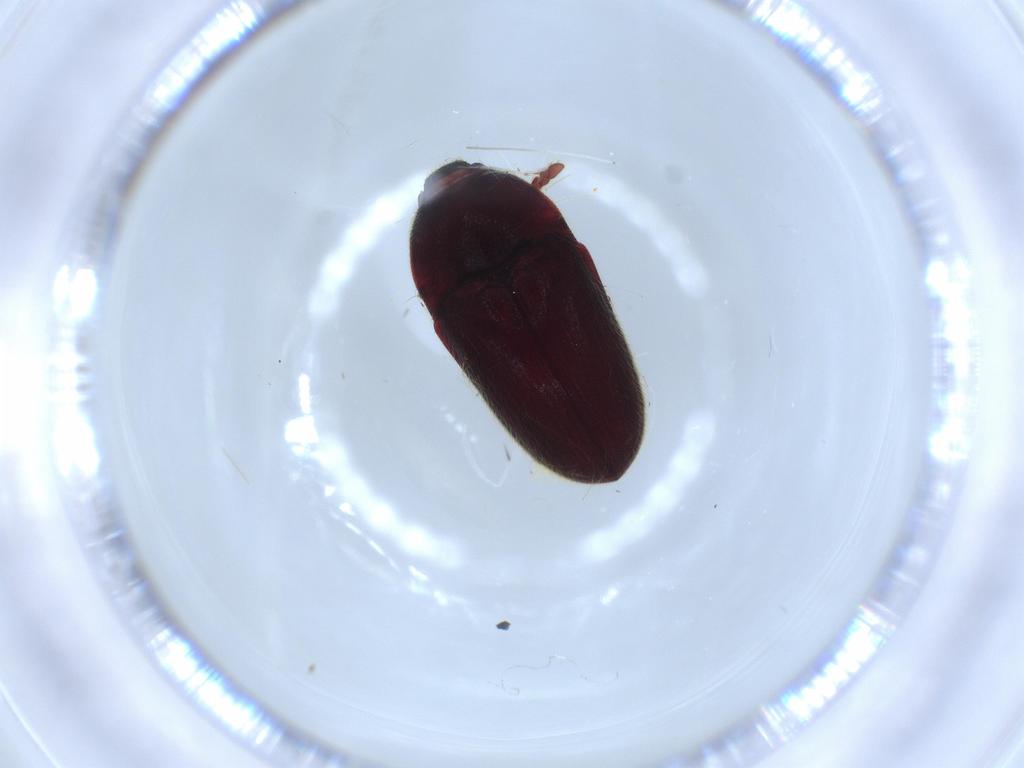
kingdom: Animalia
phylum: Arthropoda
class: Insecta
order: Coleoptera
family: Throscidae
